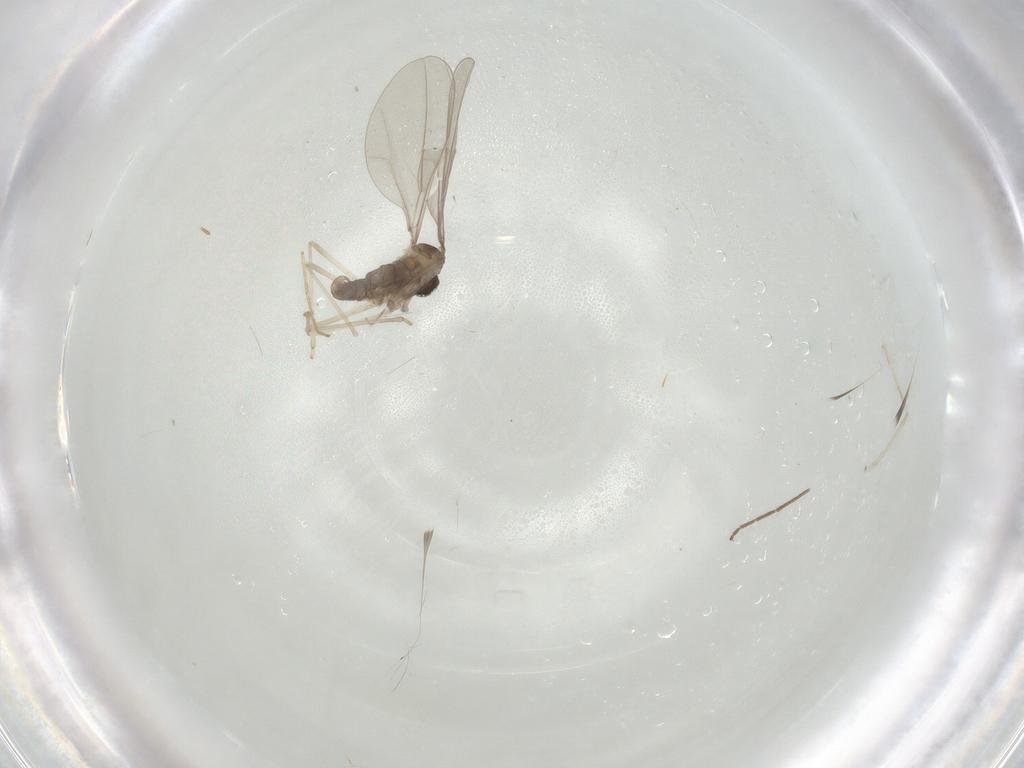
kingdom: Animalia
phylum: Arthropoda
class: Insecta
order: Diptera
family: Cecidomyiidae
